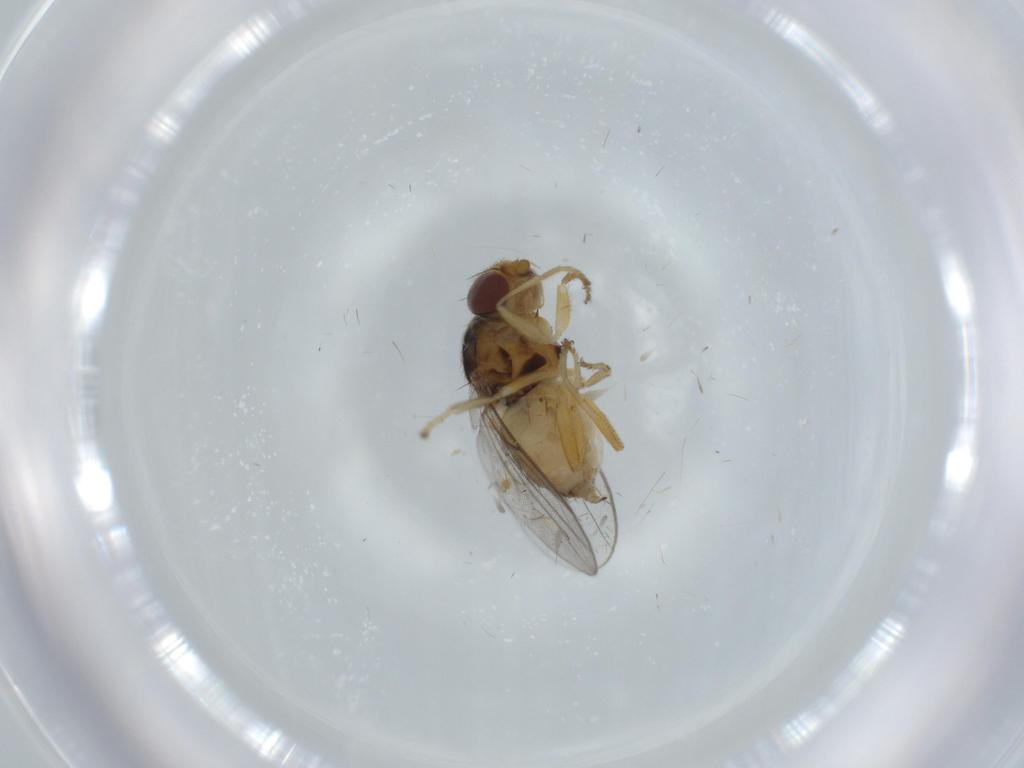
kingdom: Animalia
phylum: Arthropoda
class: Insecta
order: Diptera
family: Chloropidae
